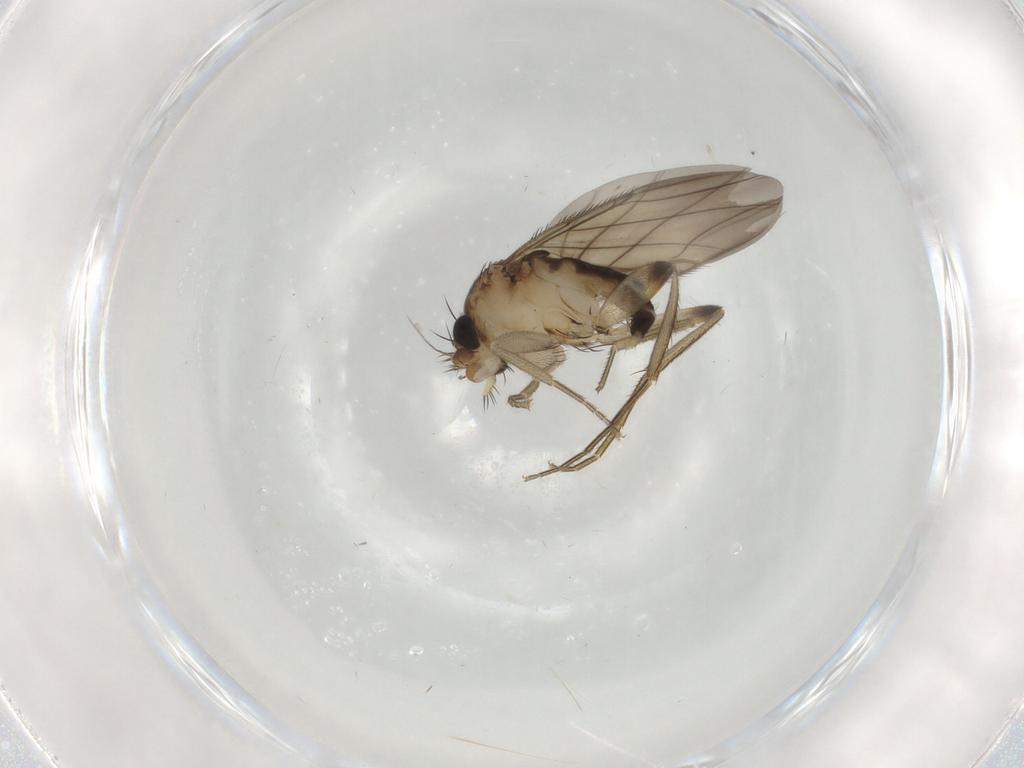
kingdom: Animalia
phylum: Arthropoda
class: Insecta
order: Diptera
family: Phoridae
